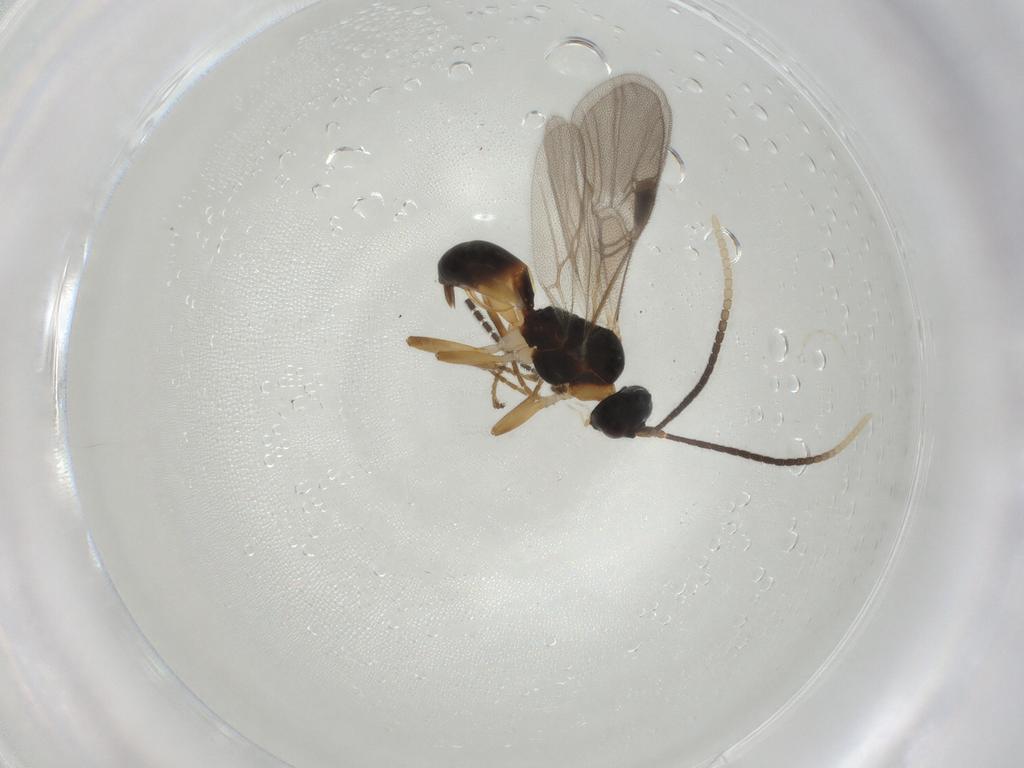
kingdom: Animalia
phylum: Arthropoda
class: Insecta
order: Hymenoptera
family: Braconidae
